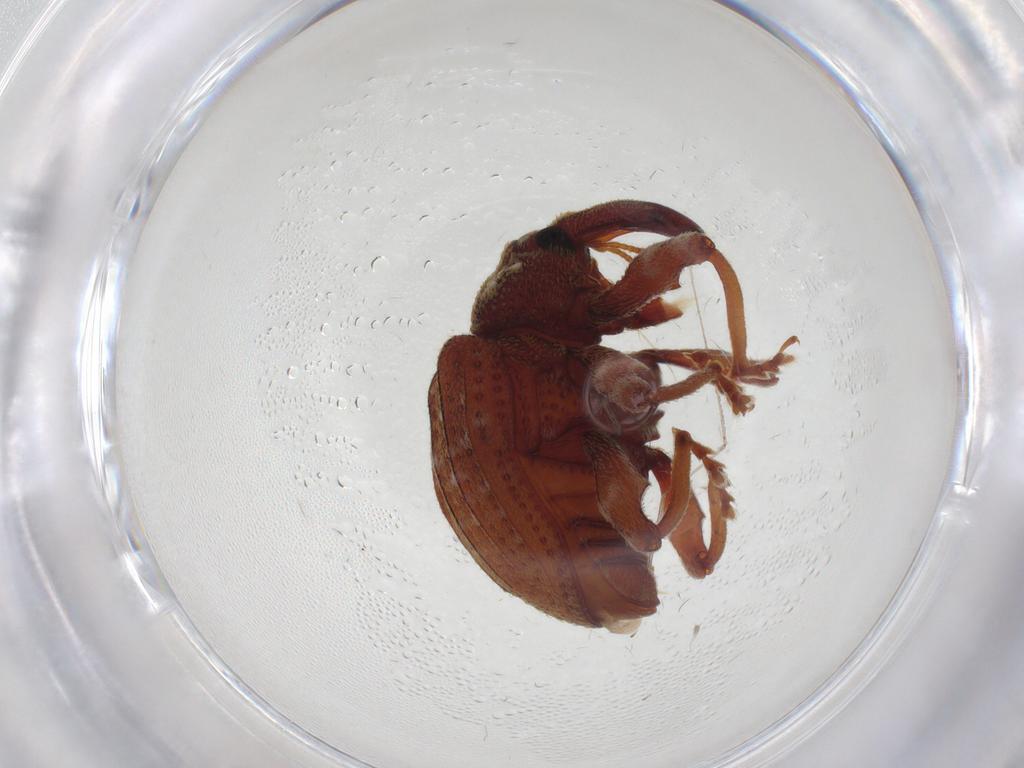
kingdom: Animalia
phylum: Arthropoda
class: Insecta
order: Coleoptera
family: Curculionidae
